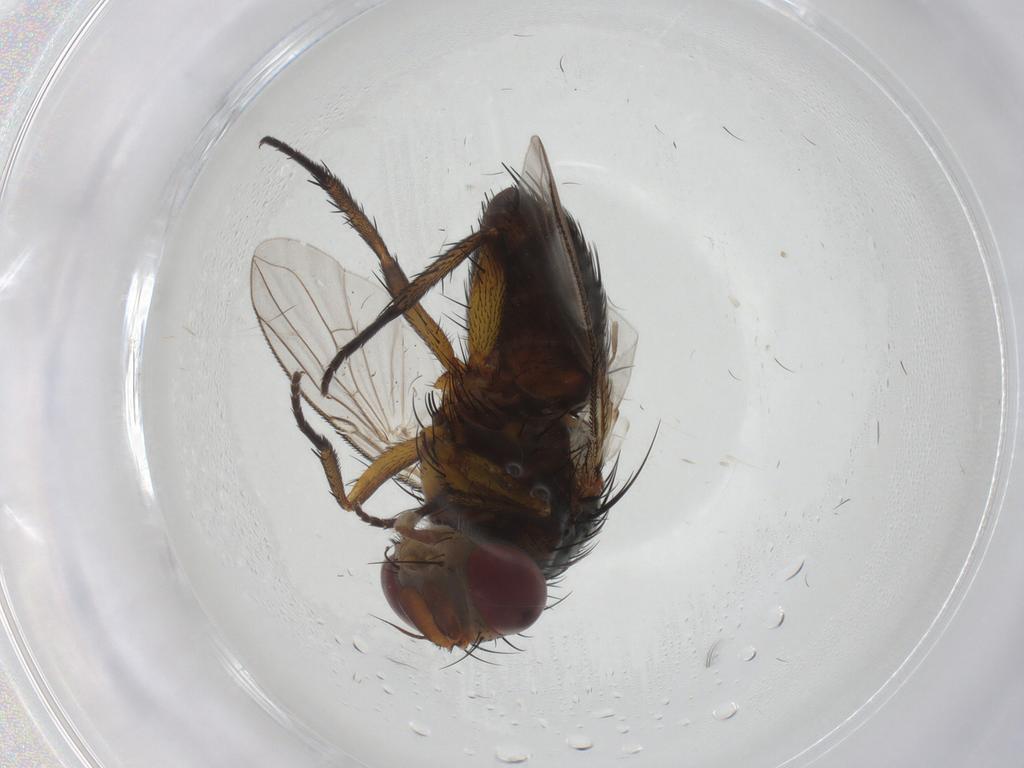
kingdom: Animalia
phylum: Arthropoda
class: Insecta
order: Diptera
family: Tachinidae
